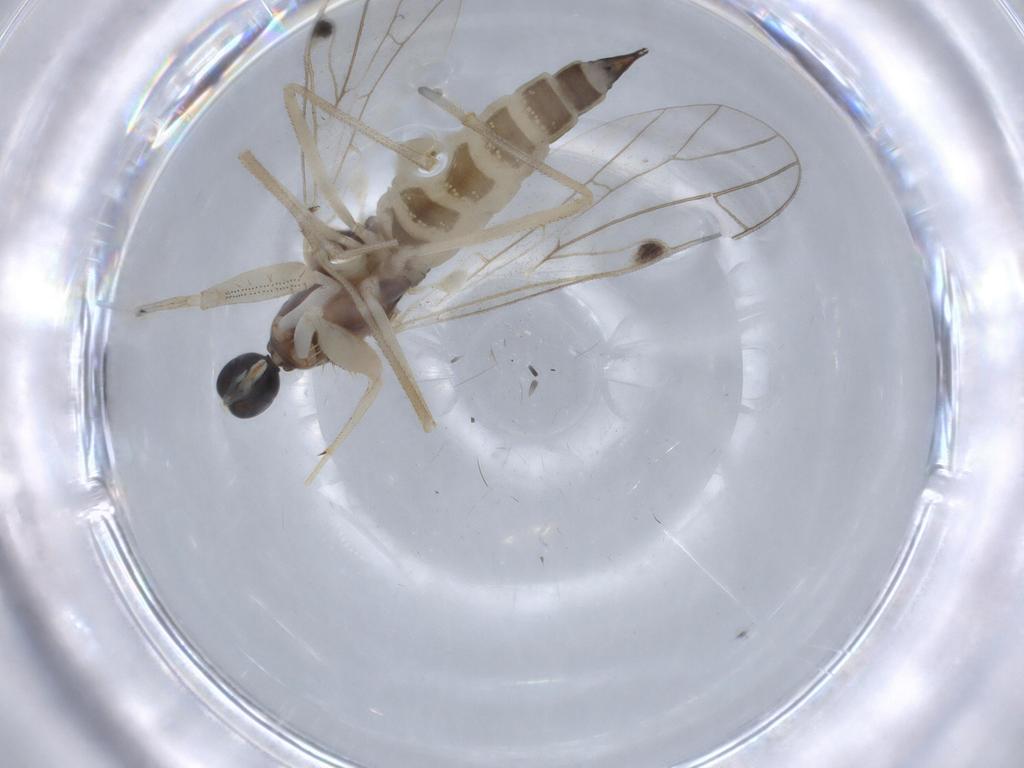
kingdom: Animalia
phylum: Arthropoda
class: Insecta
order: Diptera
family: Empididae
